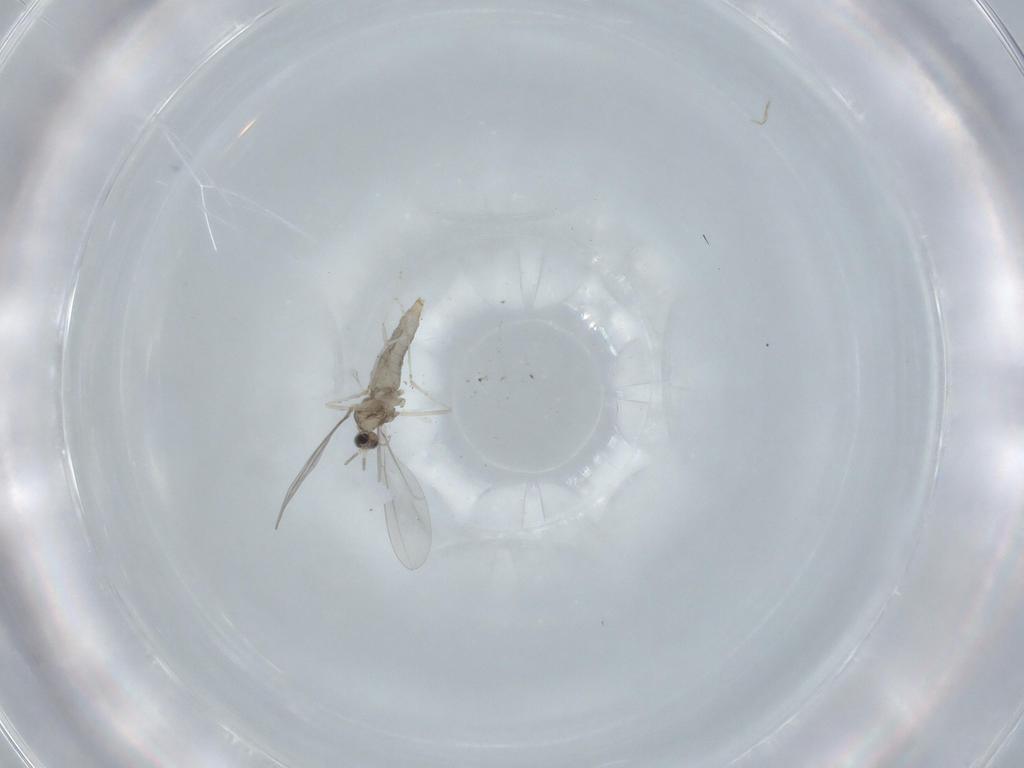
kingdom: Animalia
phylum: Arthropoda
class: Insecta
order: Diptera
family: Cecidomyiidae
